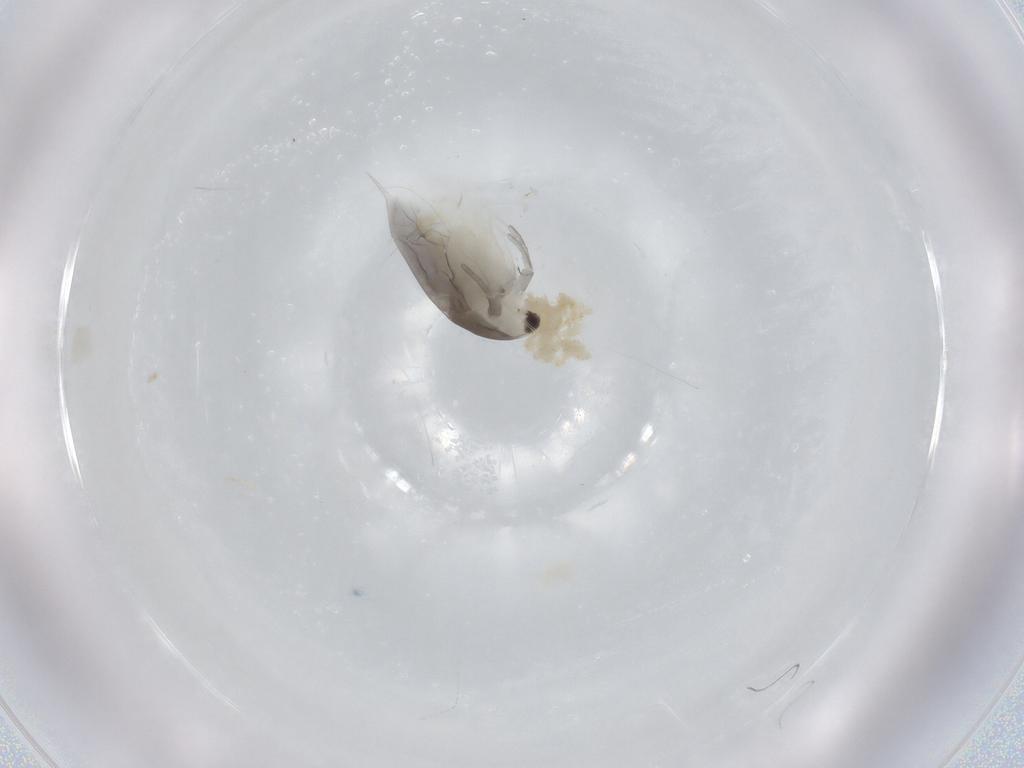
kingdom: Animalia
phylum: Arthropoda
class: Branchiopoda
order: Diplostraca
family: Daphniidae
